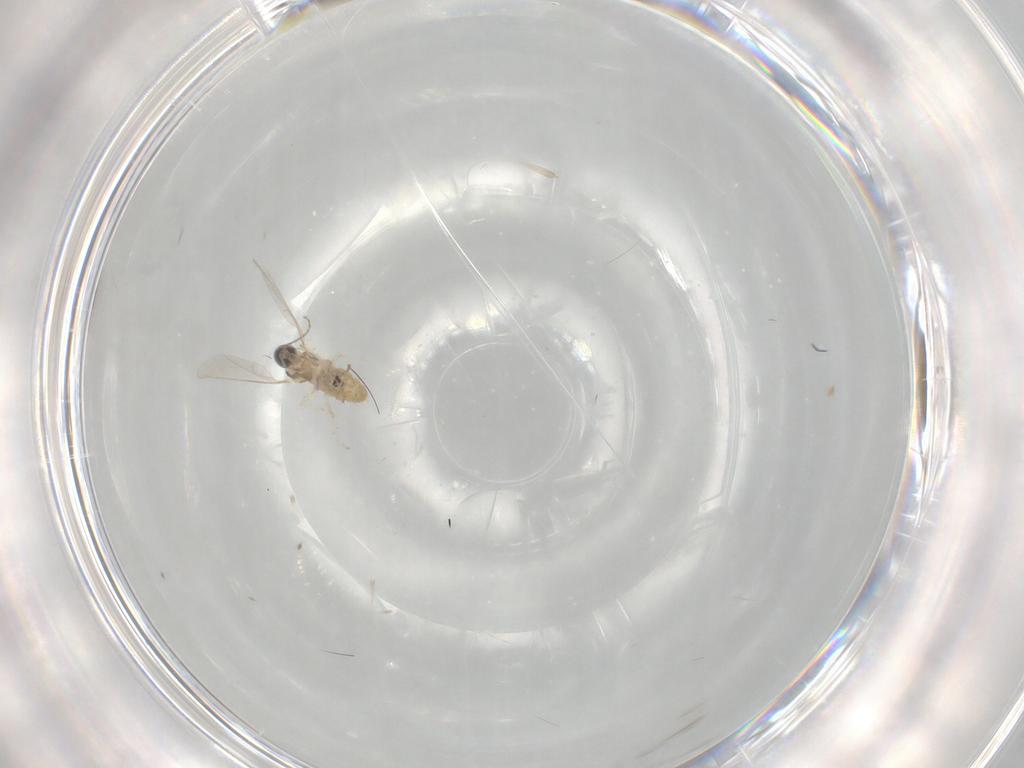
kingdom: Animalia
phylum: Arthropoda
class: Insecta
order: Diptera
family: Cecidomyiidae
